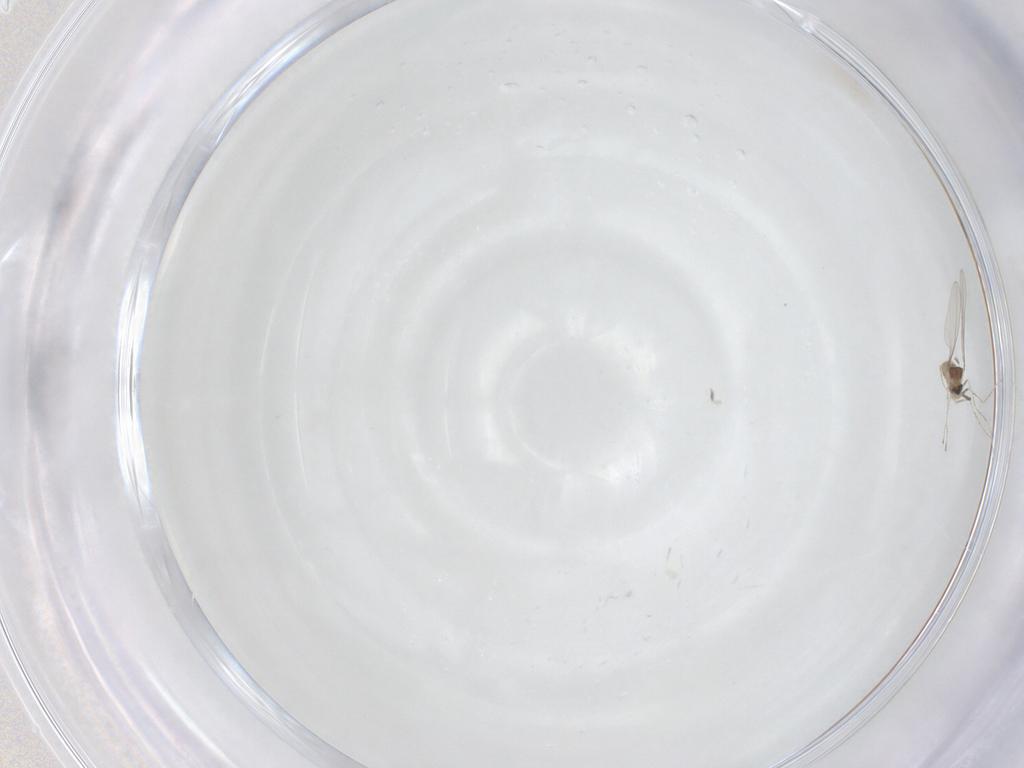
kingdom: Animalia
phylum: Arthropoda
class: Insecta
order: Diptera
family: Cecidomyiidae
